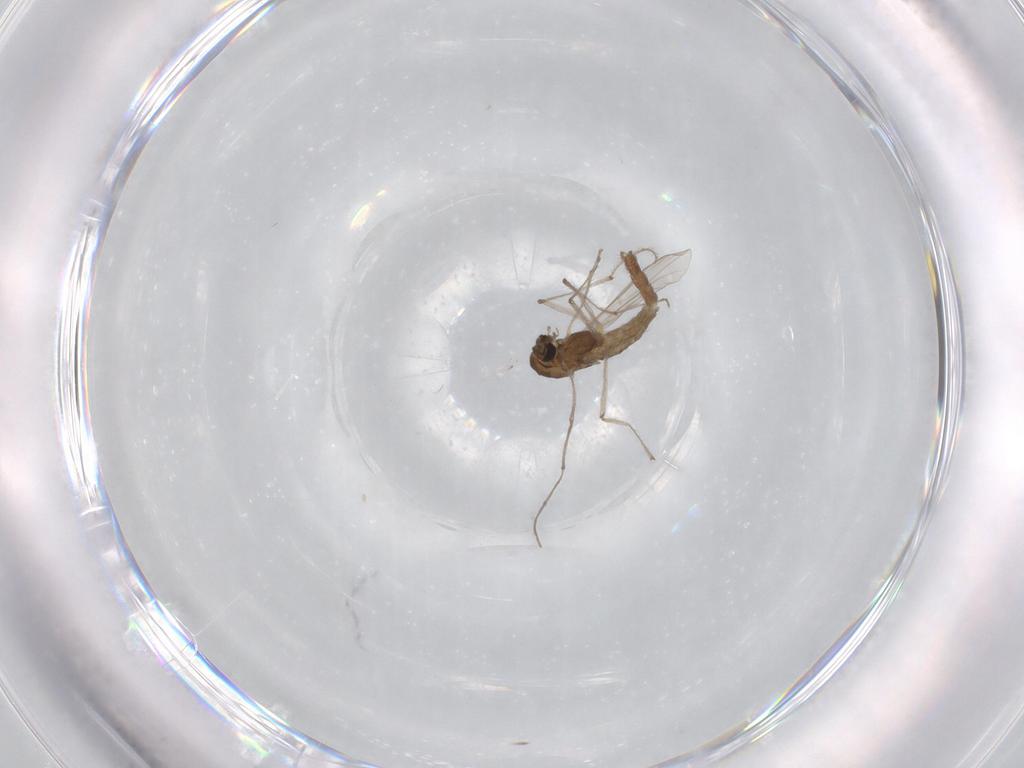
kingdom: Animalia
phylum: Arthropoda
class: Insecta
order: Diptera
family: Chironomidae
